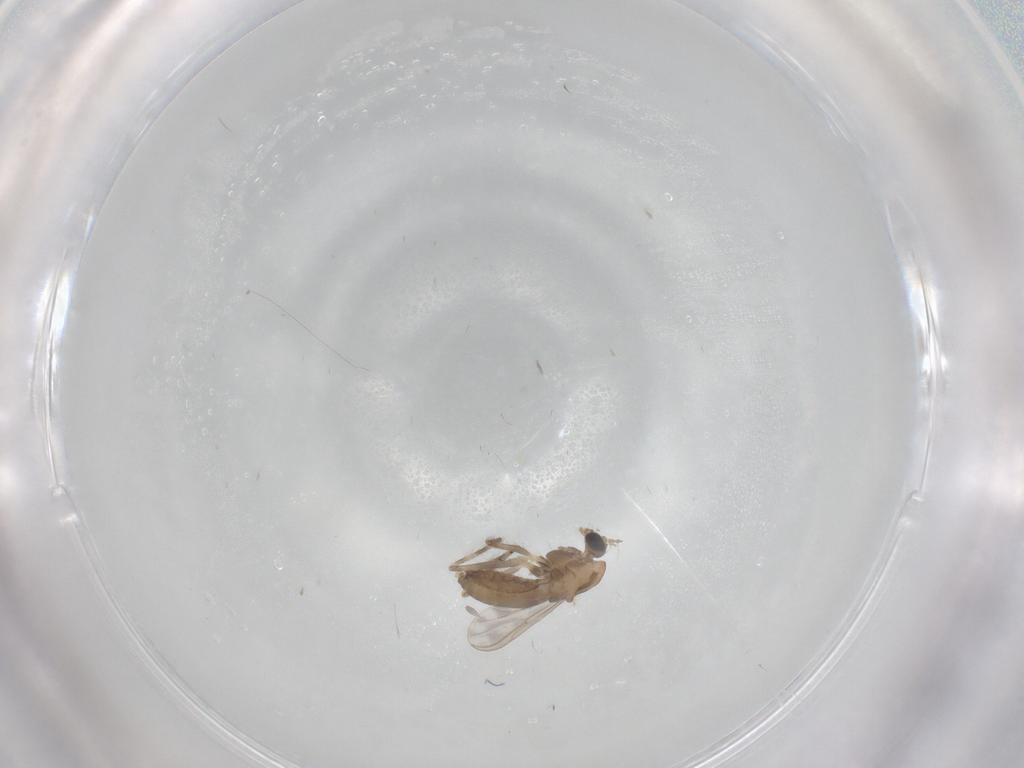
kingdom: Animalia
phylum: Arthropoda
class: Insecta
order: Diptera
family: Chironomidae
